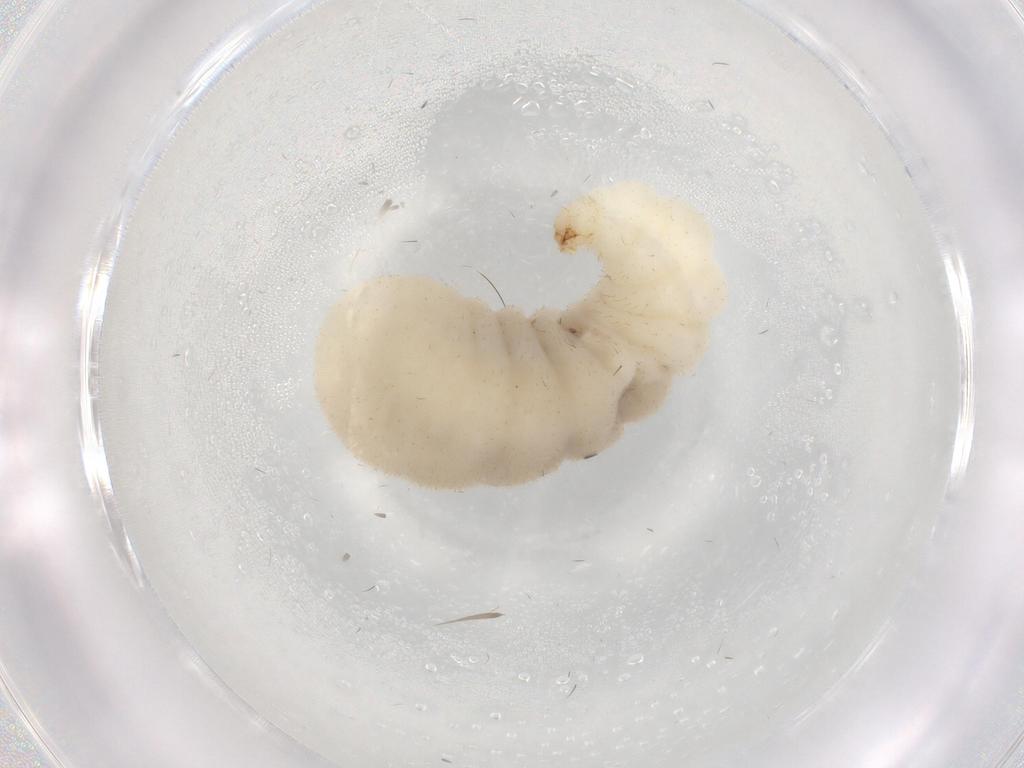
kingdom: Animalia
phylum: Arthropoda
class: Insecta
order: Hymenoptera
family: Formicidae
